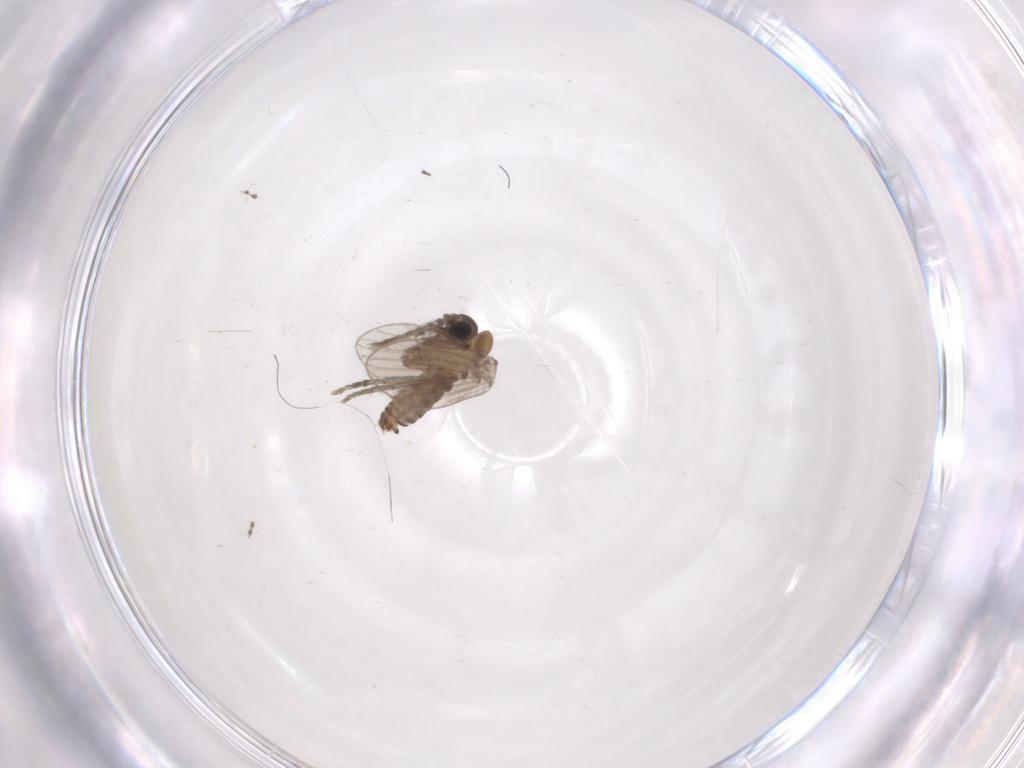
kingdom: Animalia
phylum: Arthropoda
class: Insecta
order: Diptera
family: Psychodidae
